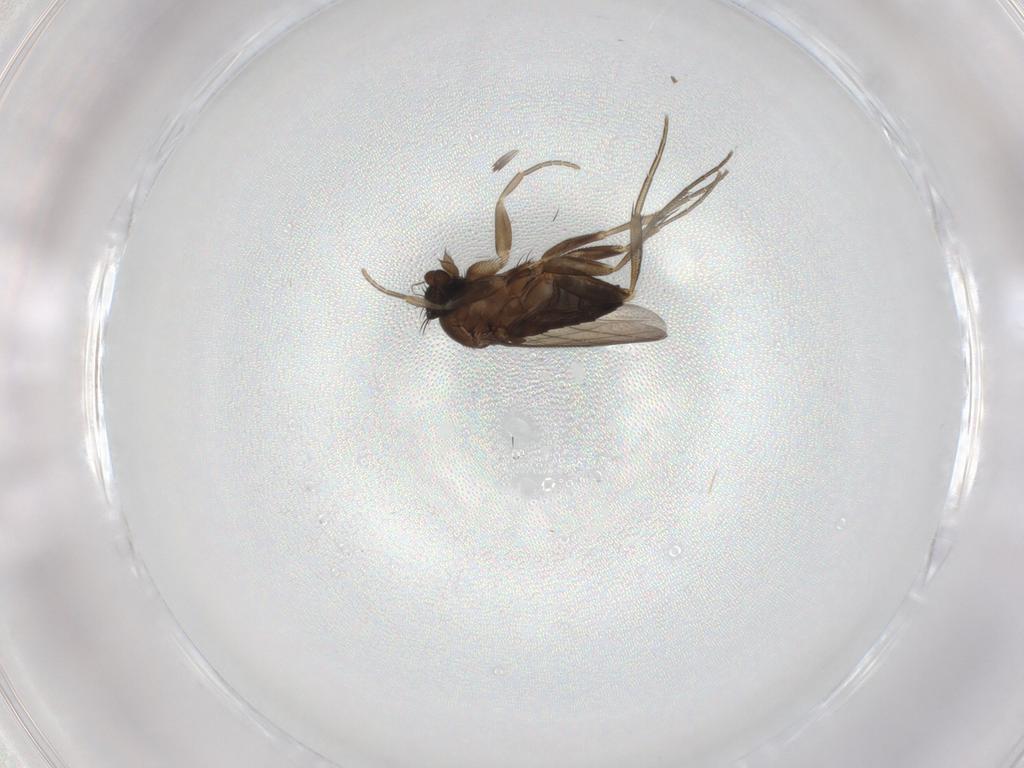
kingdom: Animalia
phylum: Arthropoda
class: Insecta
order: Diptera
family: Phoridae
